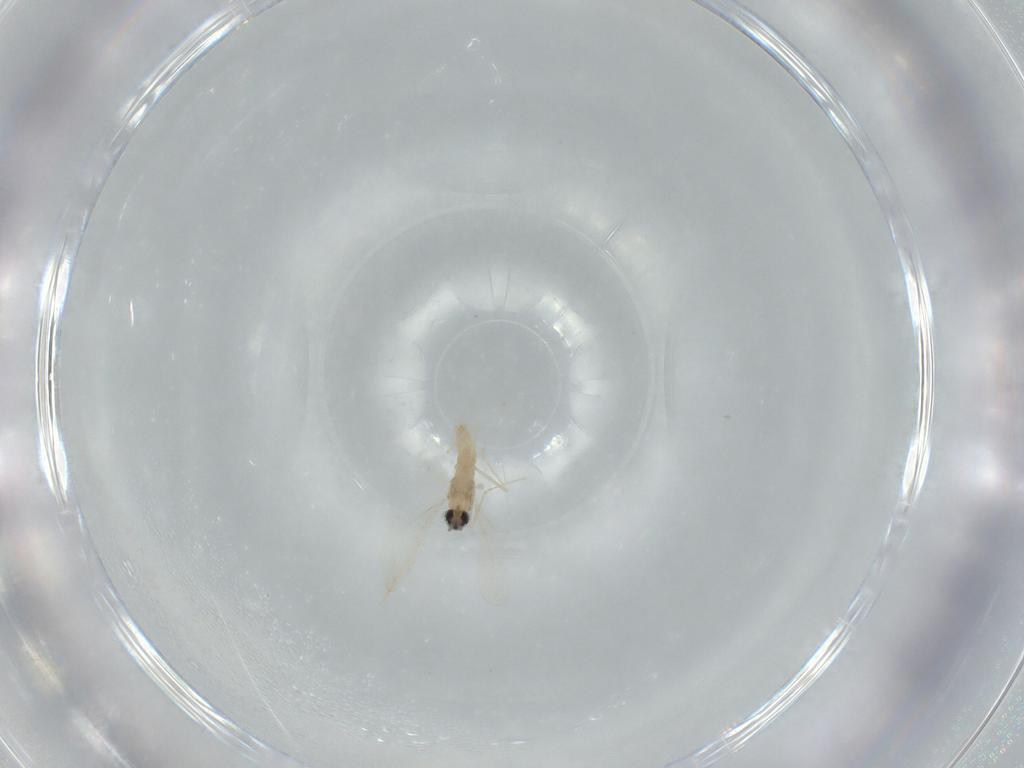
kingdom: Animalia
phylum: Arthropoda
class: Insecta
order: Diptera
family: Cecidomyiidae
